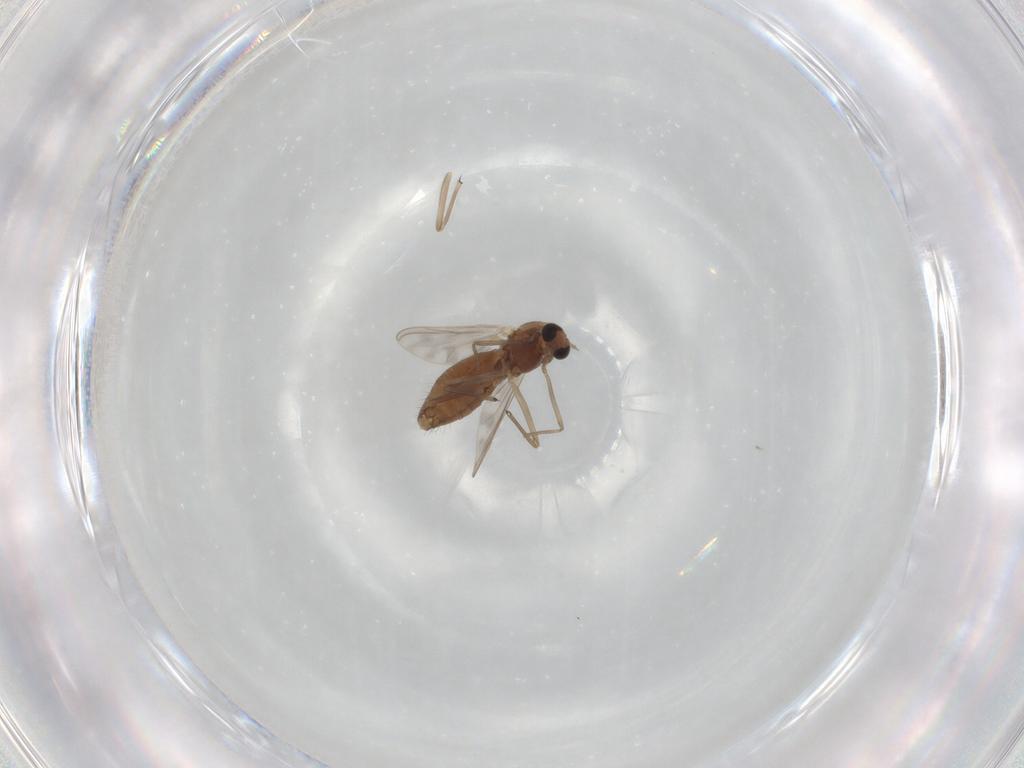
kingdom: Animalia
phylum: Arthropoda
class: Insecta
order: Diptera
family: Chironomidae
